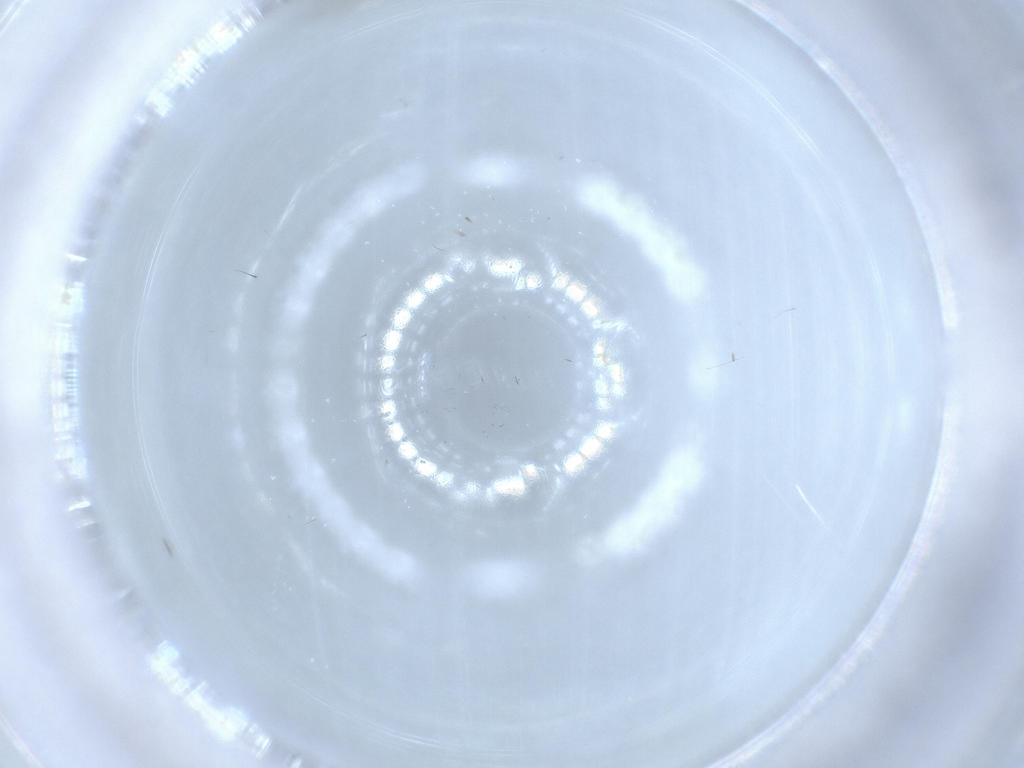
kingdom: Animalia
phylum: Arthropoda
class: Insecta
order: Diptera
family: Cecidomyiidae
